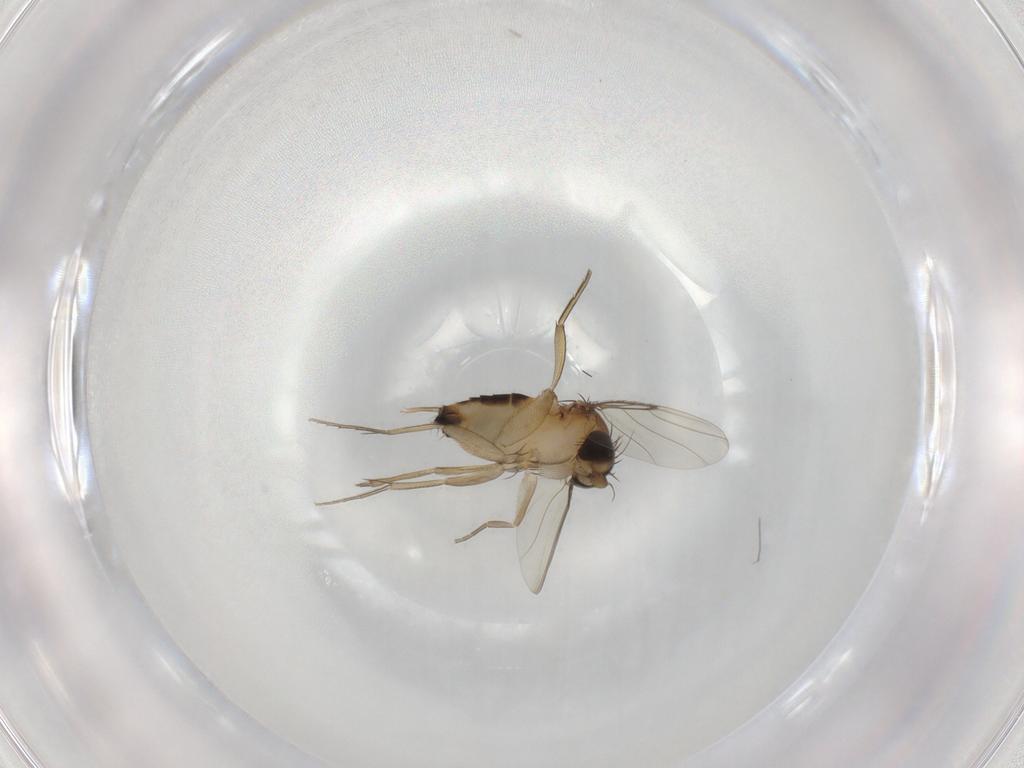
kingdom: Animalia
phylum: Arthropoda
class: Insecta
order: Diptera
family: Phoridae
